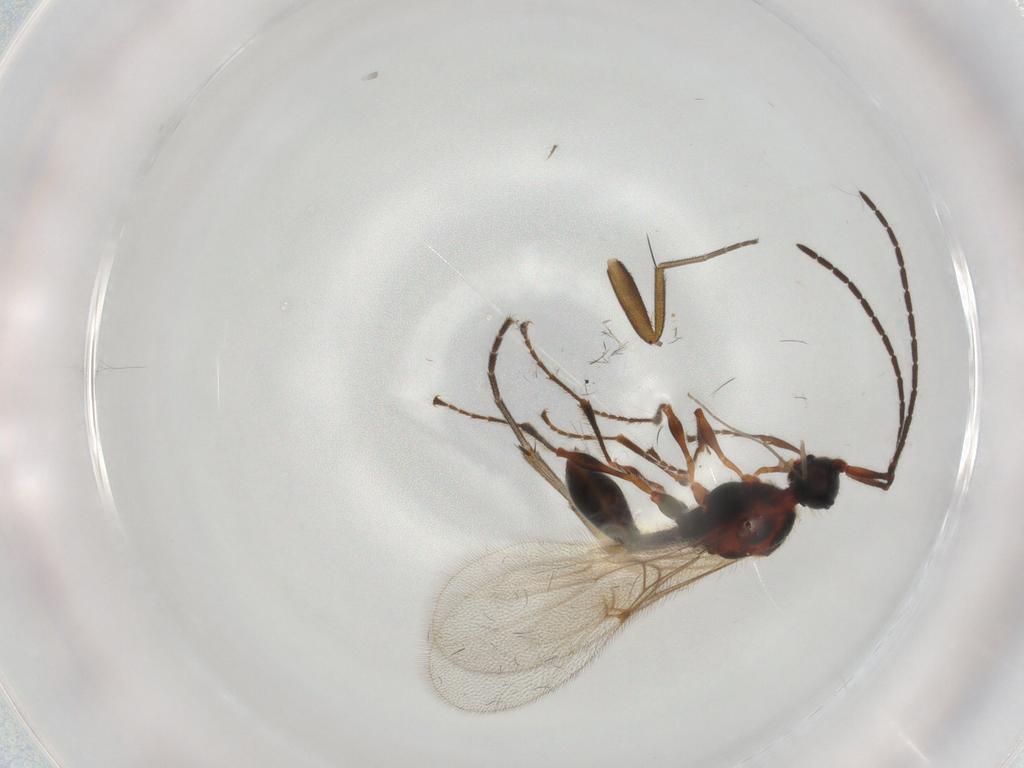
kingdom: Animalia
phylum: Arthropoda
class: Insecta
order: Hymenoptera
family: Diapriidae
